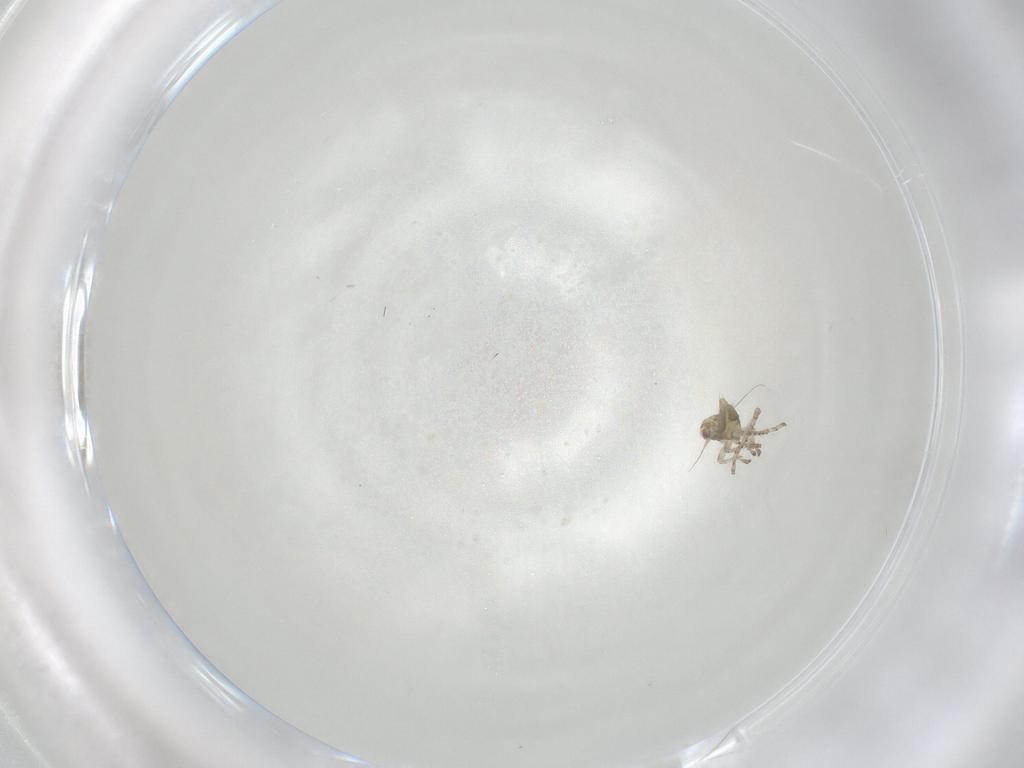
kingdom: Animalia
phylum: Arthropoda
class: Insecta
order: Hemiptera
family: Cicadellidae
